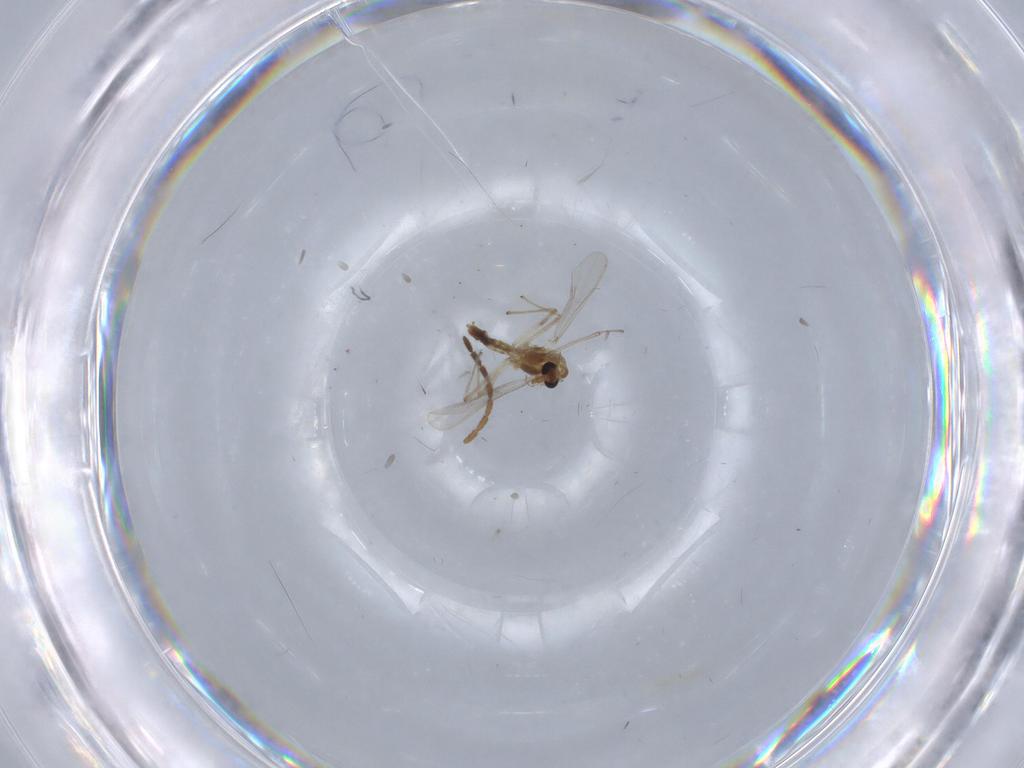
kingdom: Animalia
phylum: Arthropoda
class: Insecta
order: Diptera
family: Chironomidae
